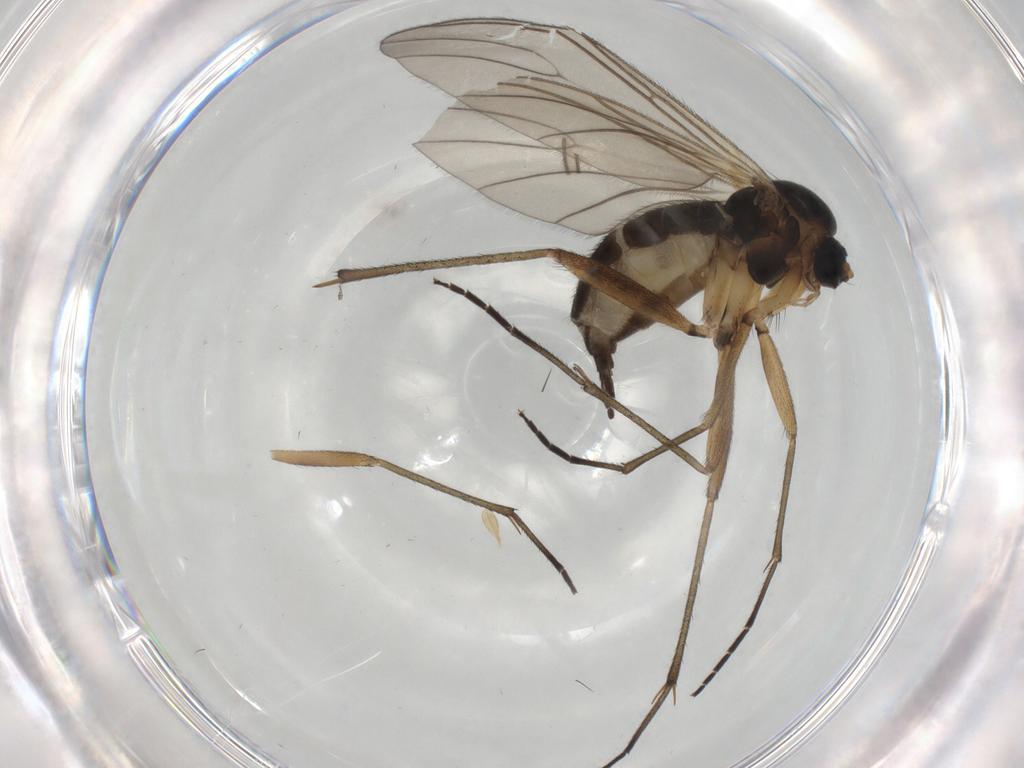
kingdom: Animalia
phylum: Arthropoda
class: Insecta
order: Diptera
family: Sciaridae
